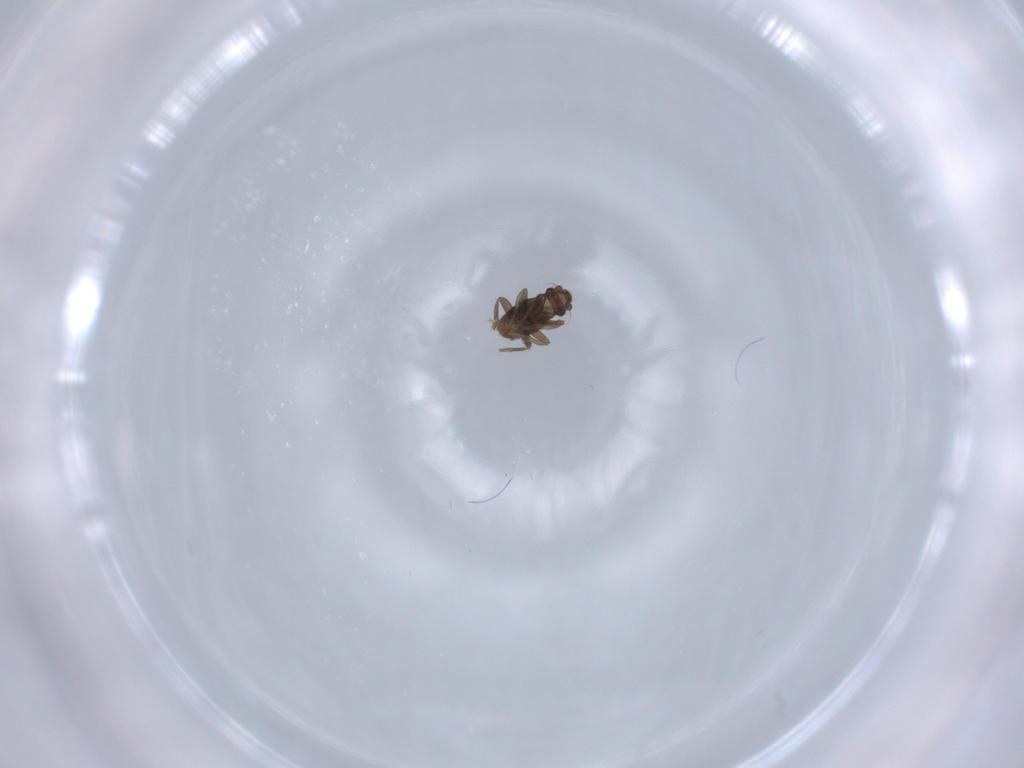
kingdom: Animalia
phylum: Arthropoda
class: Insecta
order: Diptera
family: Phoridae
